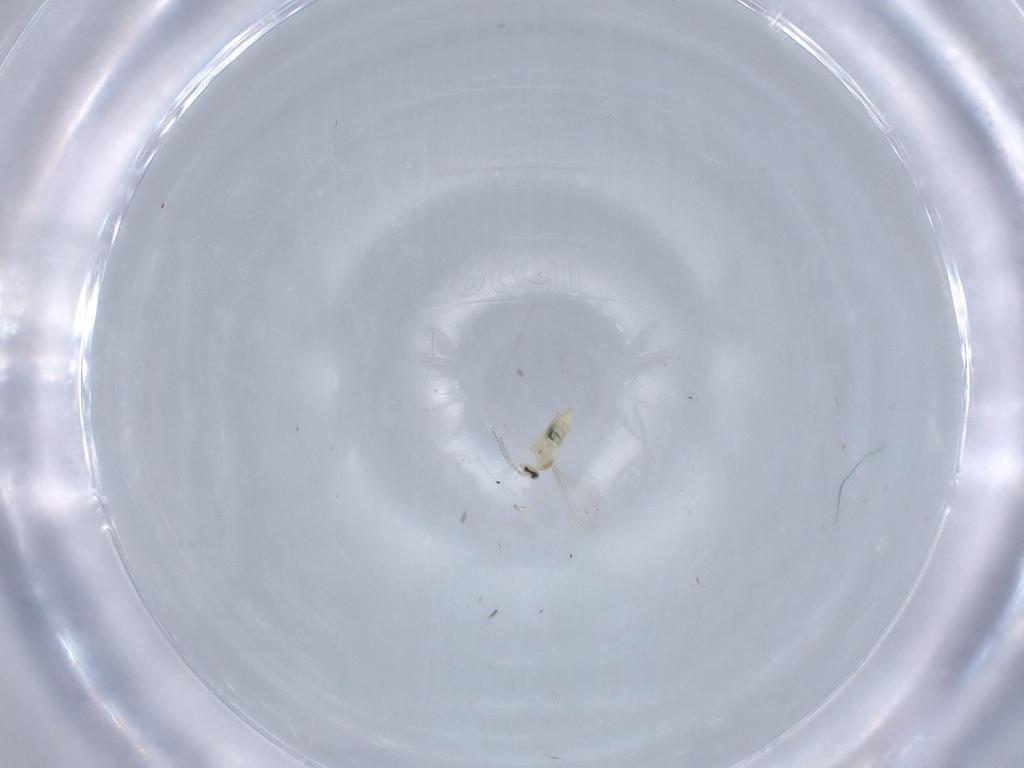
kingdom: Animalia
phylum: Arthropoda
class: Insecta
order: Diptera
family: Cecidomyiidae
